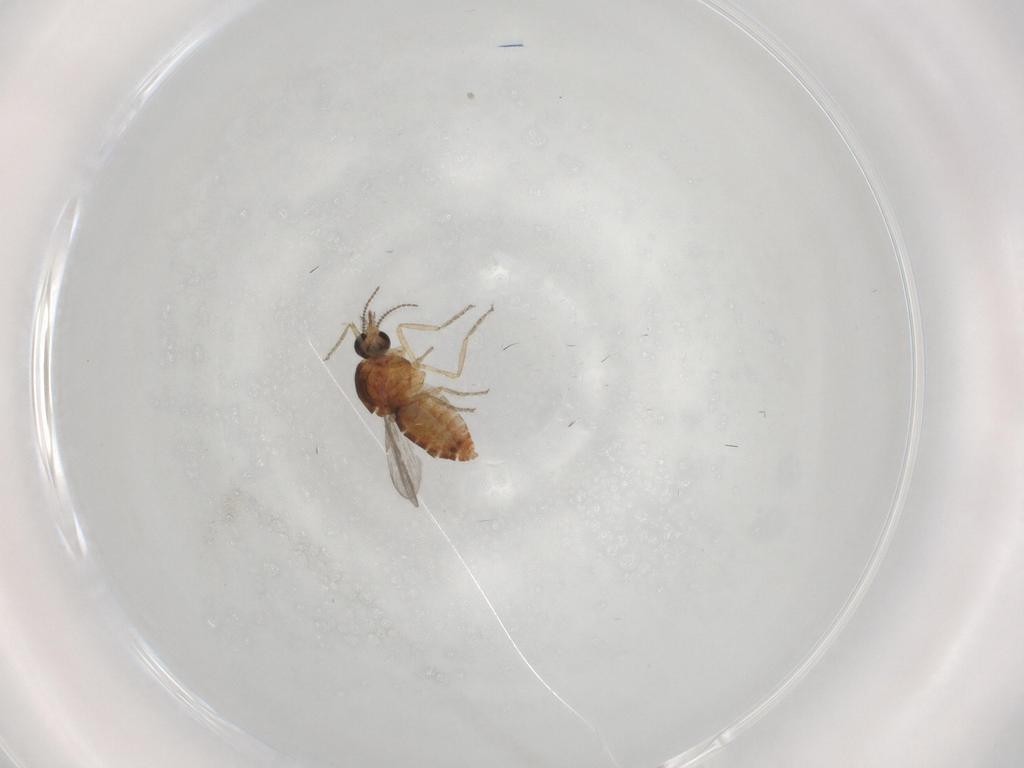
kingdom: Animalia
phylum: Arthropoda
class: Insecta
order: Diptera
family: Ceratopogonidae
